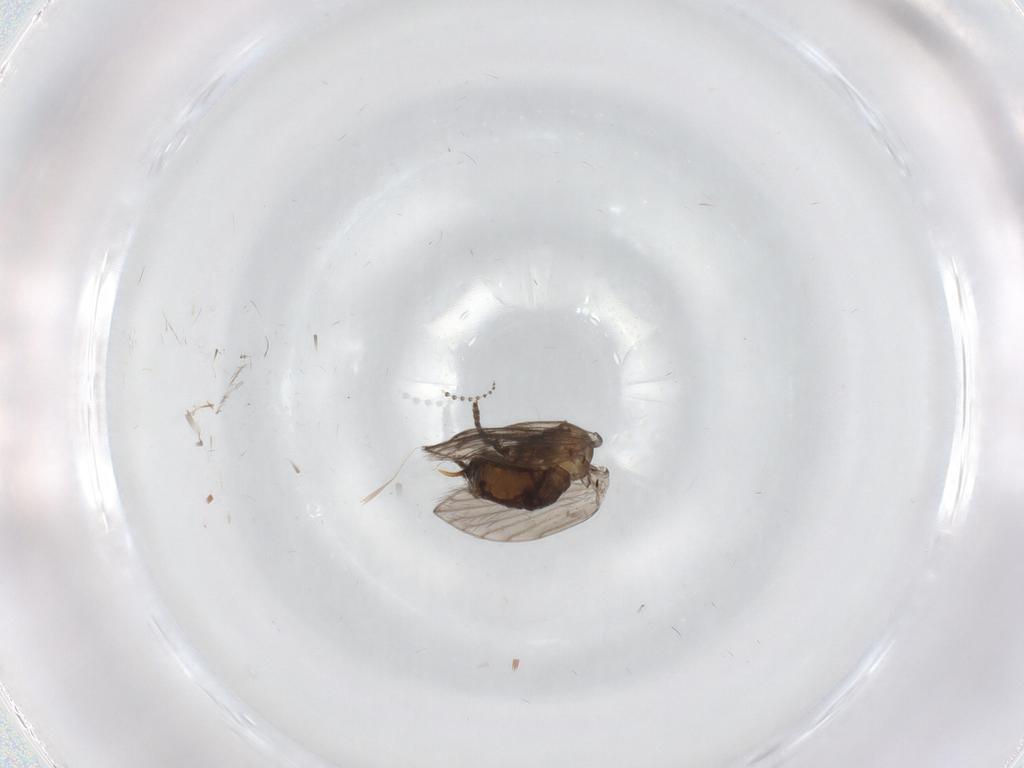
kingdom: Animalia
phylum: Arthropoda
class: Insecta
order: Diptera
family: Psychodidae
